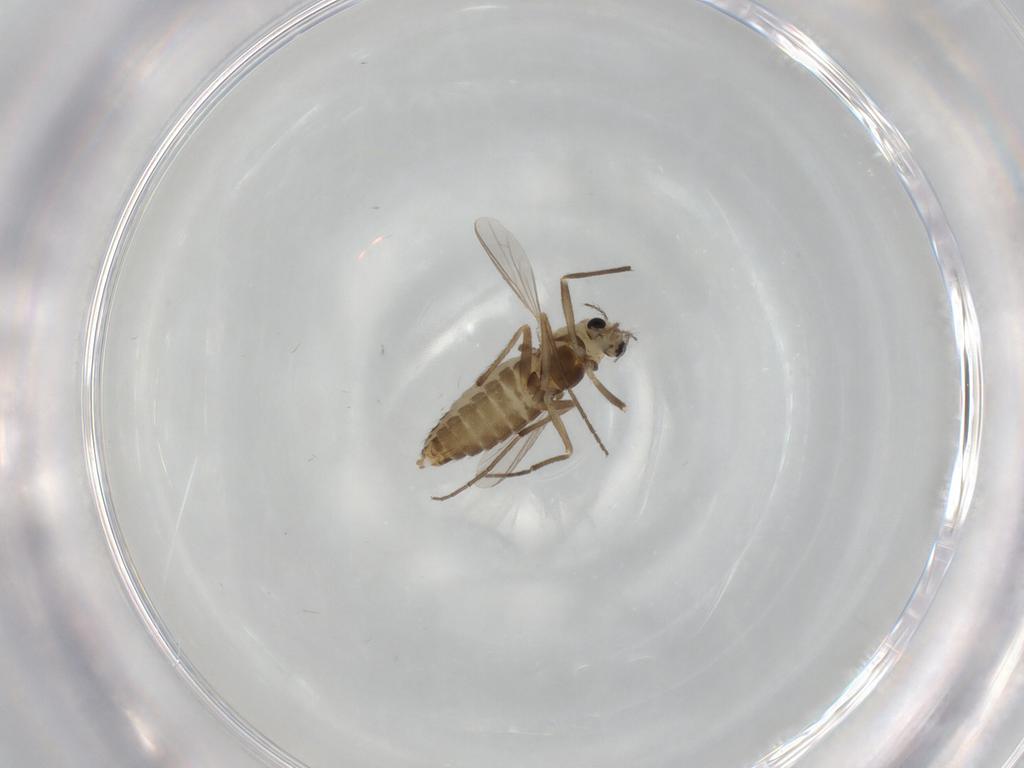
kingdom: Animalia
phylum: Arthropoda
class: Insecta
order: Diptera
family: Chironomidae
